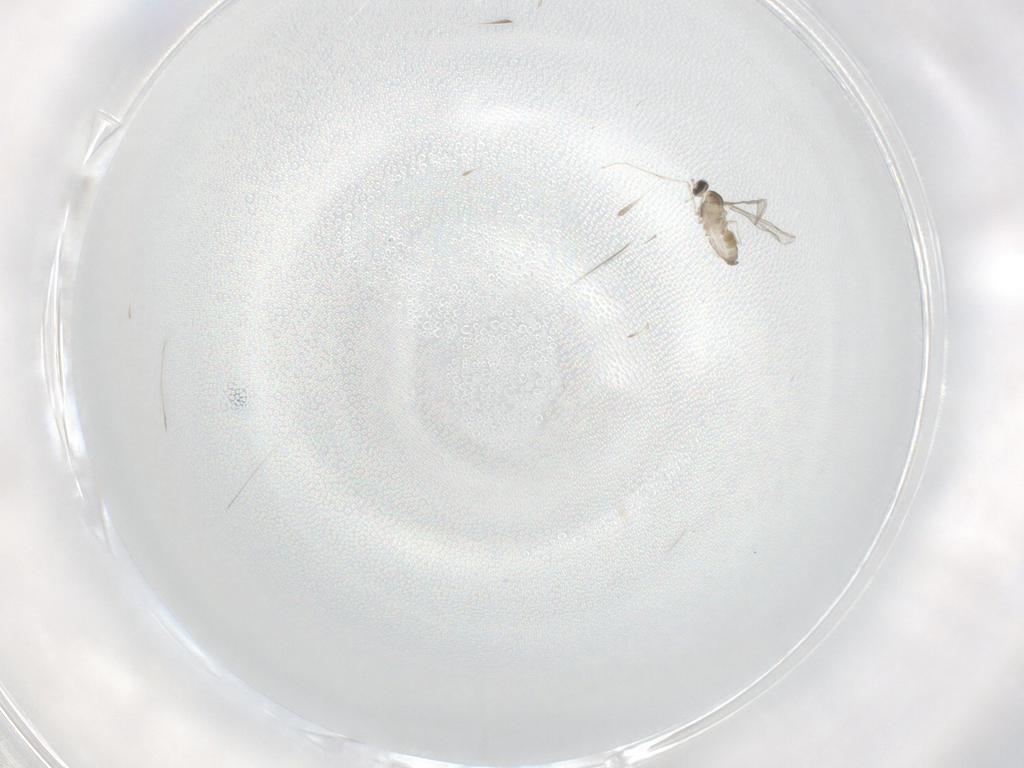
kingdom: Animalia
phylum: Arthropoda
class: Insecta
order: Diptera
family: Cecidomyiidae
